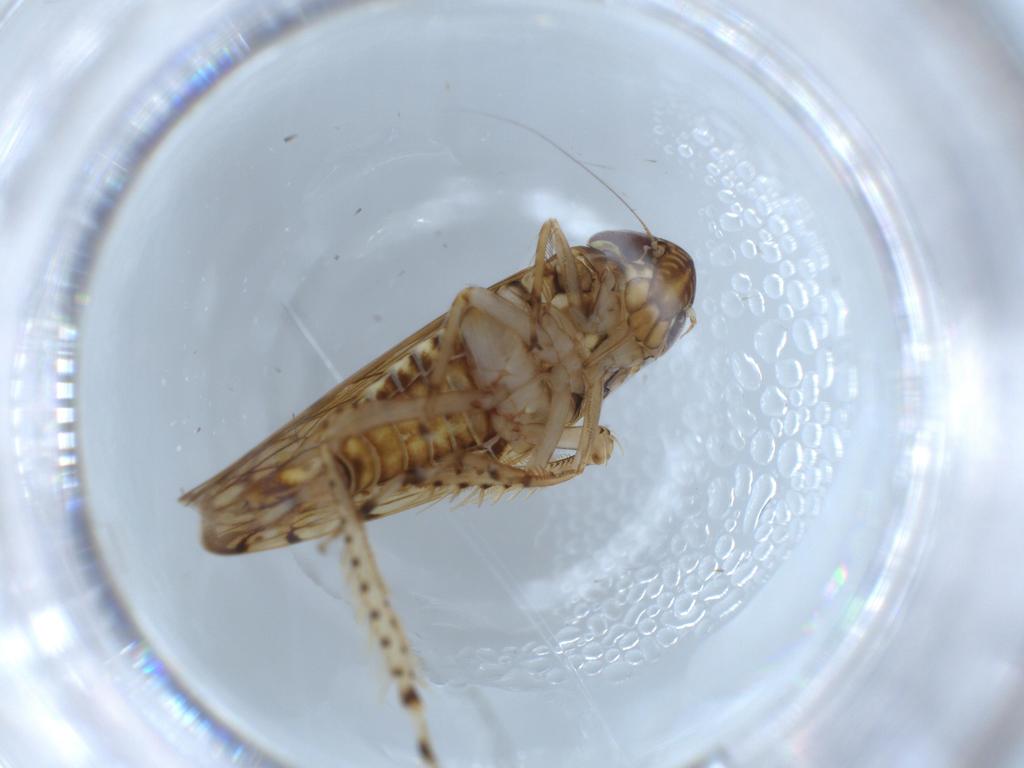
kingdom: Animalia
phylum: Arthropoda
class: Insecta
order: Hemiptera
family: Cicadellidae
